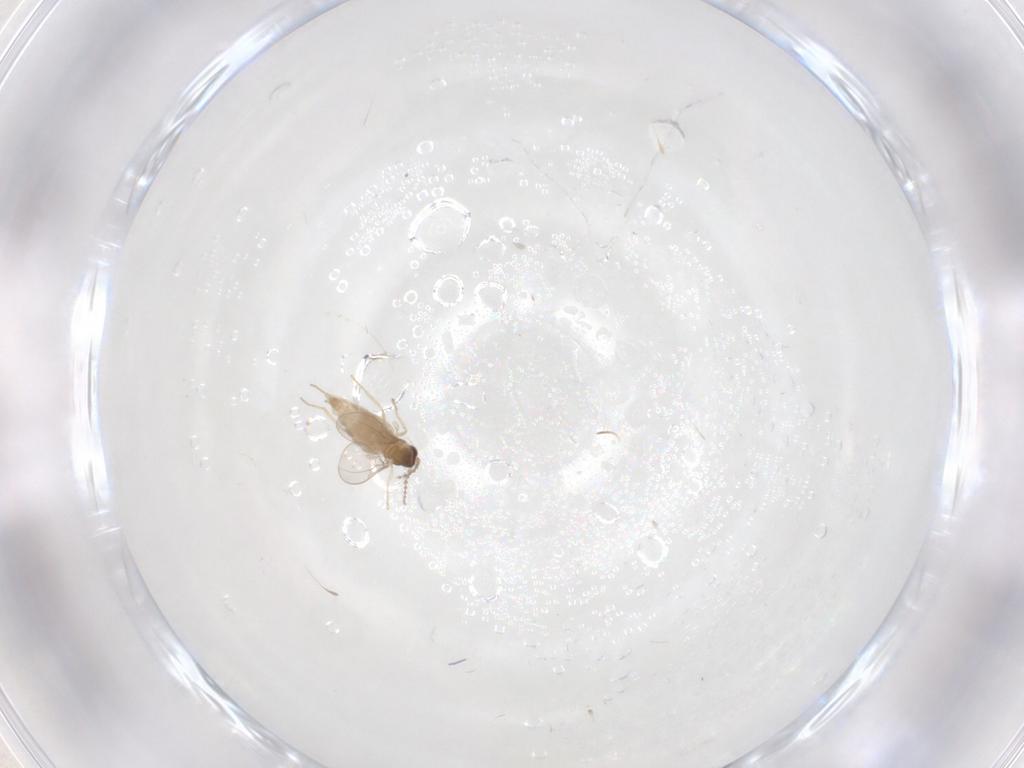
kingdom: Animalia
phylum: Arthropoda
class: Insecta
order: Diptera
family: Cecidomyiidae
